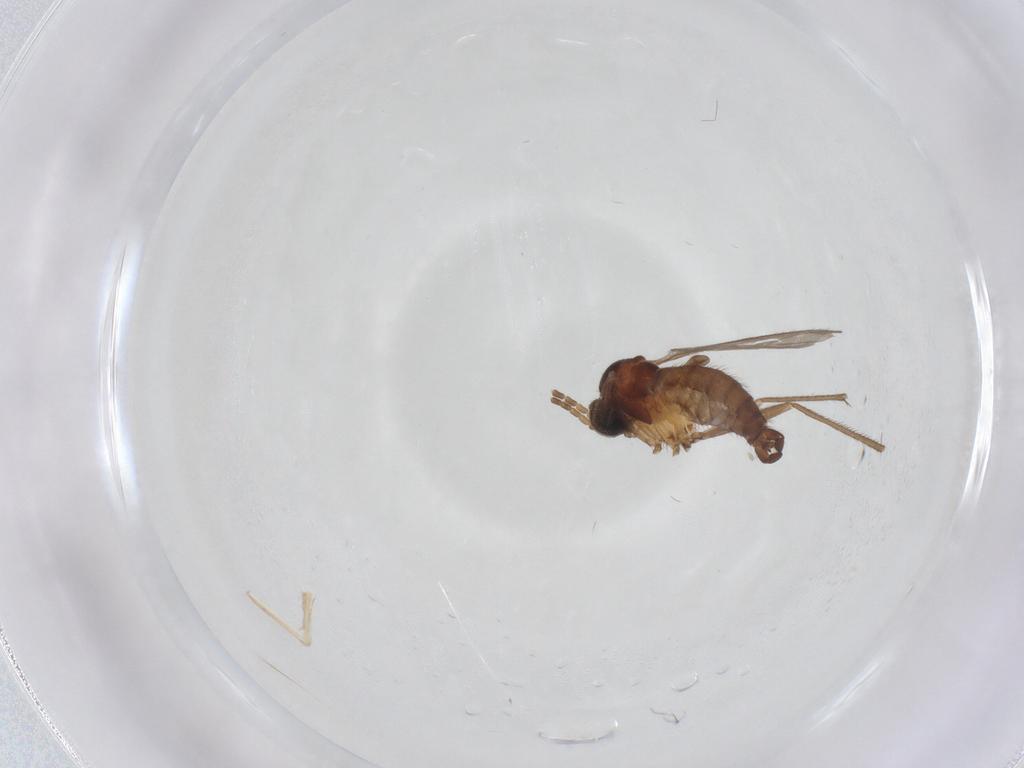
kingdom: Animalia
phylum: Arthropoda
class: Insecta
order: Diptera
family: Sciaridae
